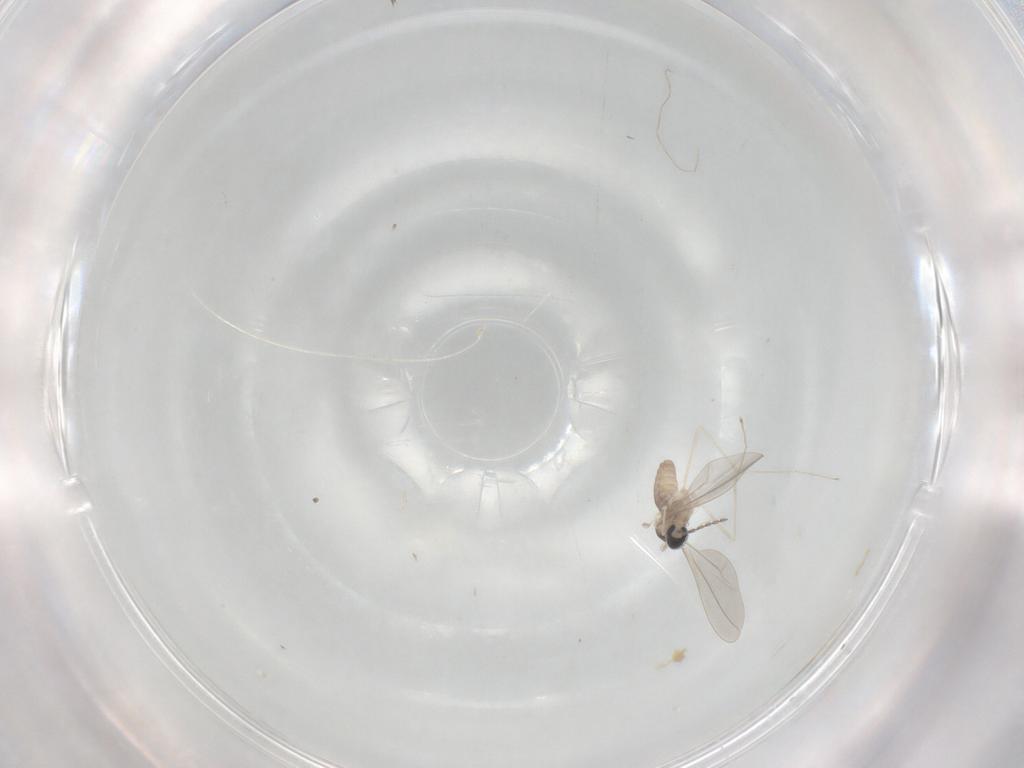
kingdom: Animalia
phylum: Arthropoda
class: Insecta
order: Diptera
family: Cecidomyiidae
